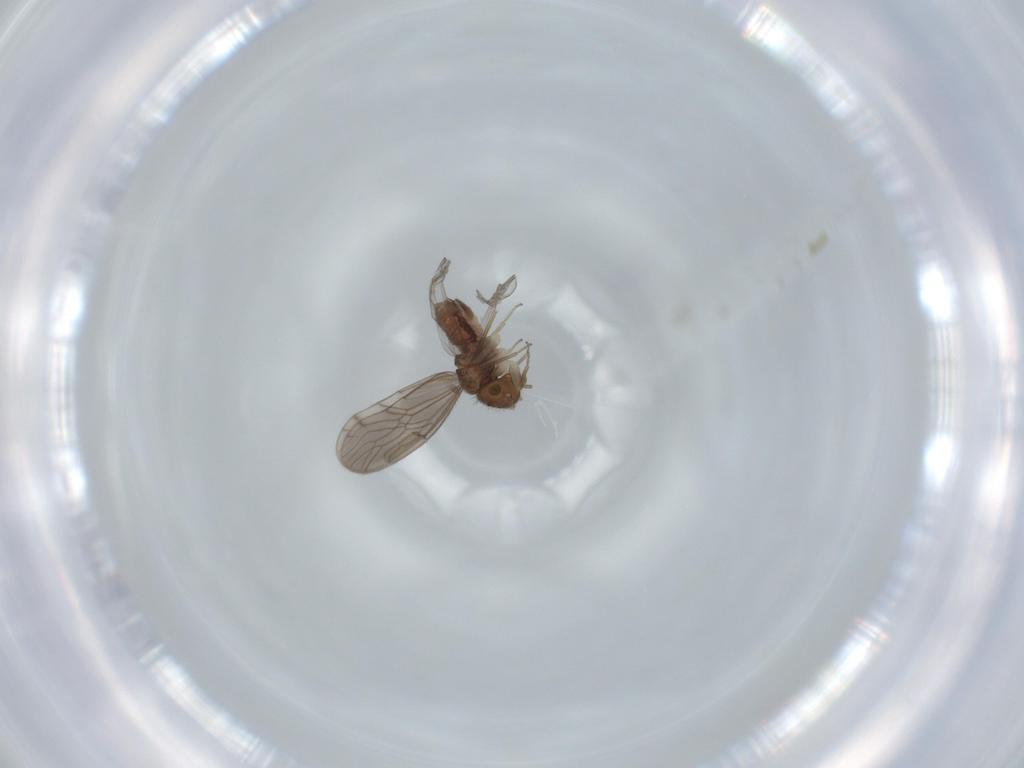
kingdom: Animalia
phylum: Arthropoda
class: Insecta
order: Psocodea
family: Ectopsocidae
